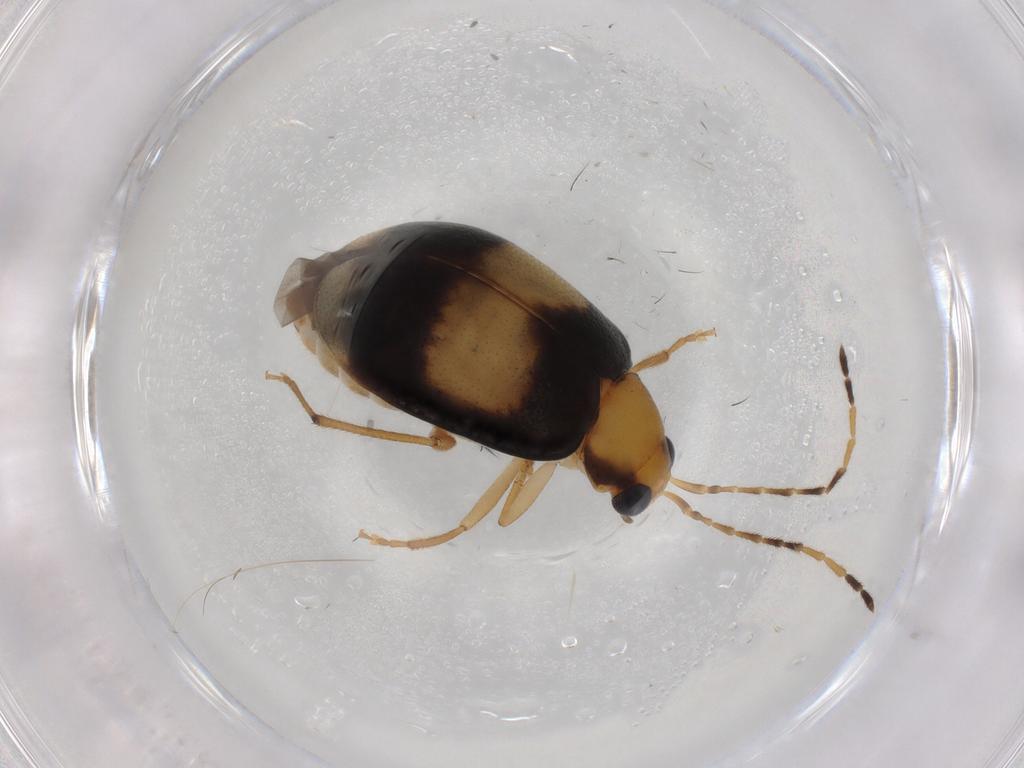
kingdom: Animalia
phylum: Arthropoda
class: Insecta
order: Coleoptera
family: Chrysomelidae
